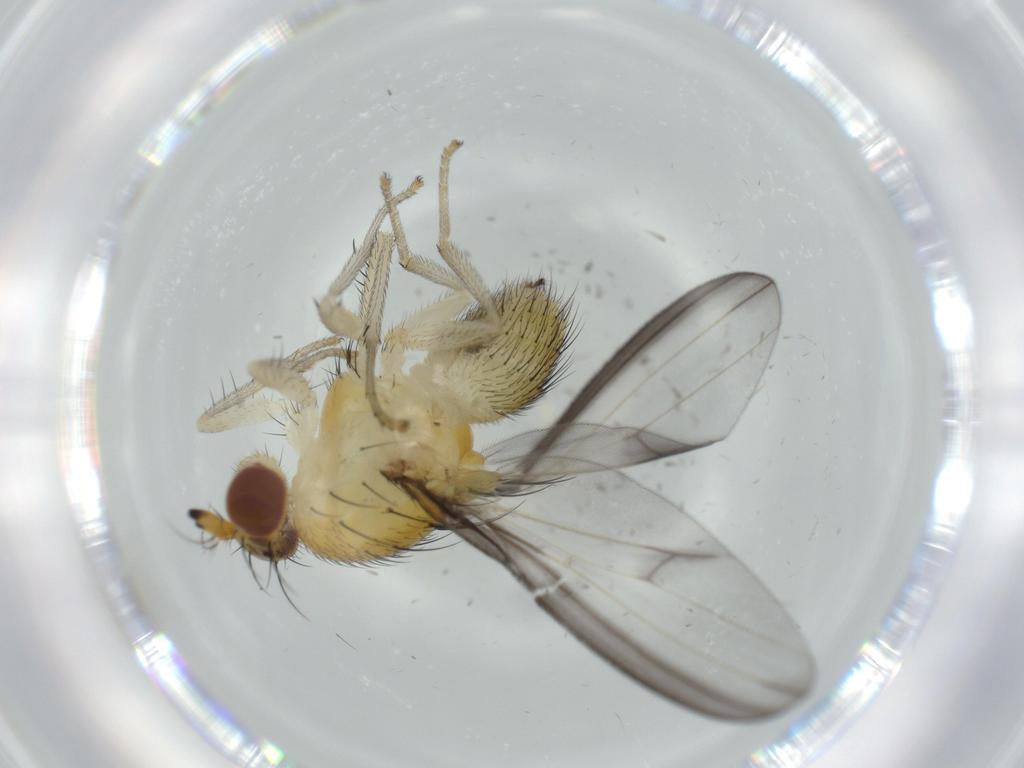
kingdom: Animalia
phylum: Arthropoda
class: Insecta
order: Diptera
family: Lauxaniidae
